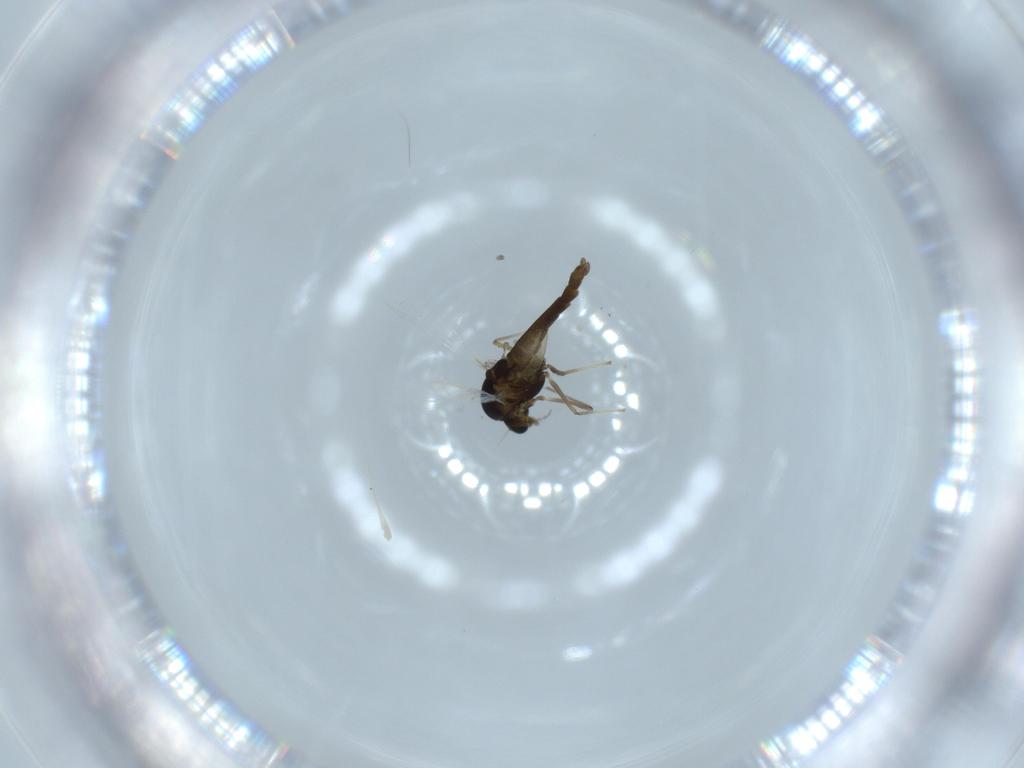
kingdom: Animalia
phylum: Arthropoda
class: Insecta
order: Diptera
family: Chironomidae
